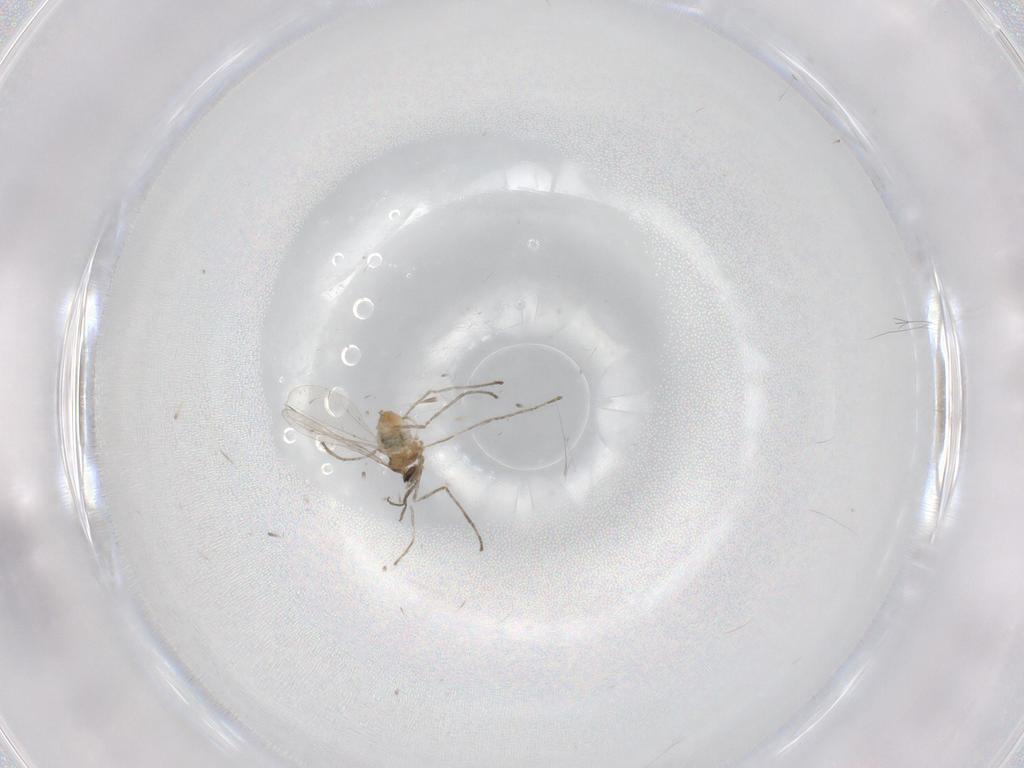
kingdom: Animalia
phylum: Arthropoda
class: Insecta
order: Diptera
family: Cecidomyiidae
